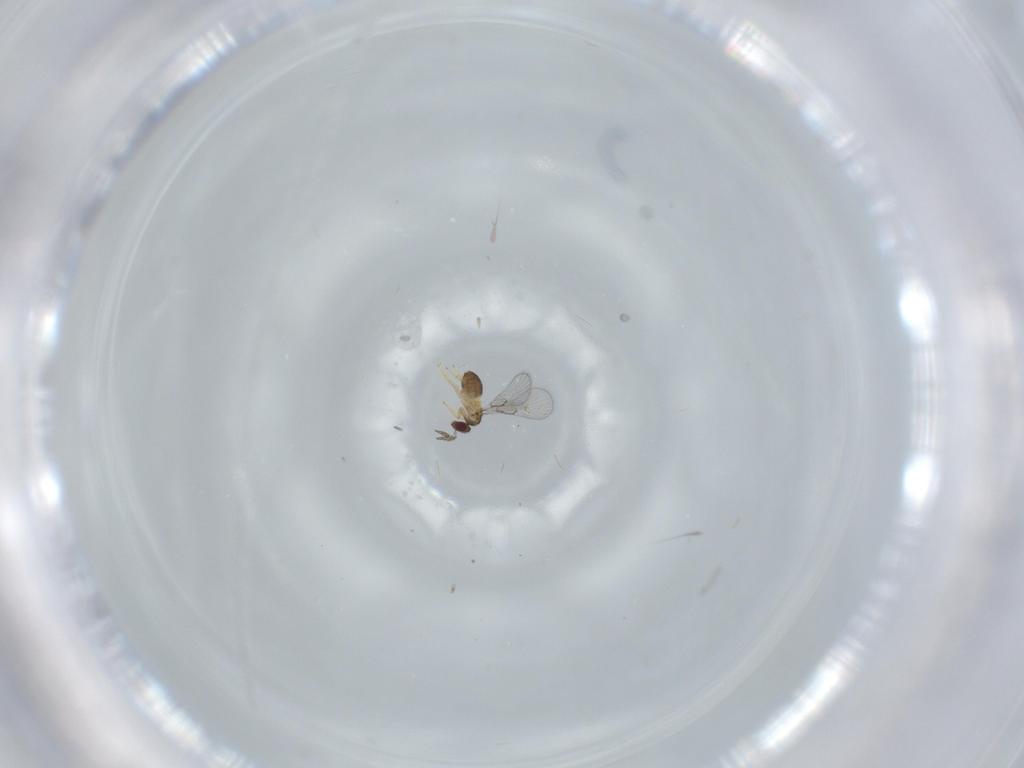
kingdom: Animalia
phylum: Arthropoda
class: Insecta
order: Hymenoptera
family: Trichogrammatidae
